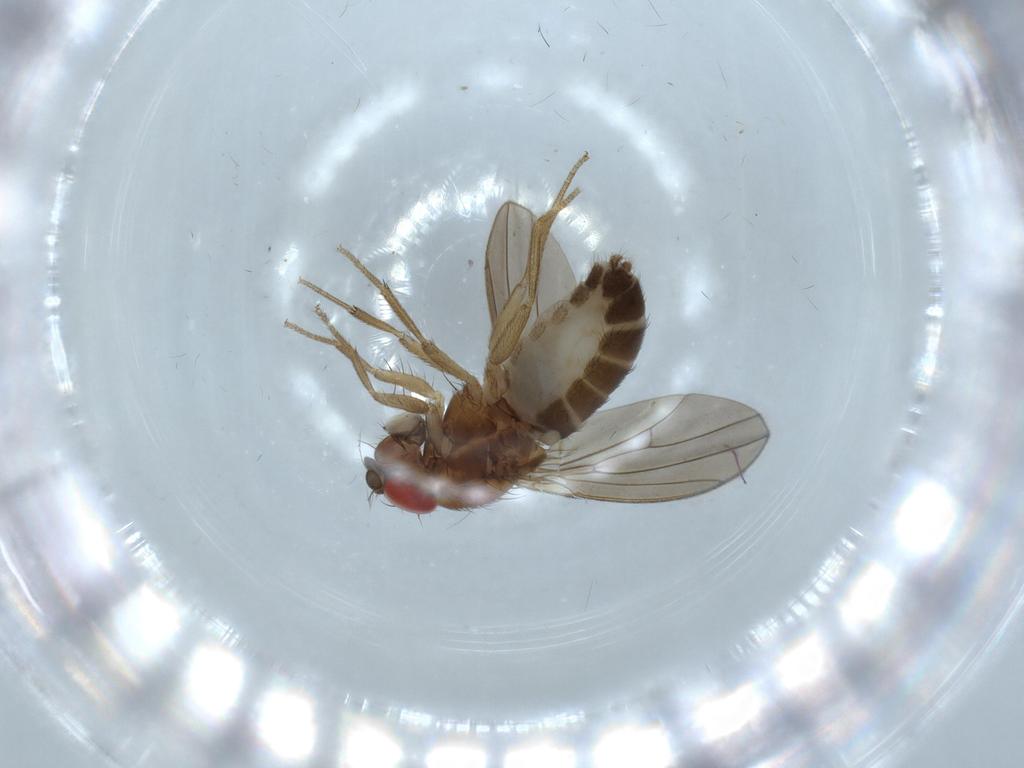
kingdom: Animalia
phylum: Arthropoda
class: Insecta
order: Diptera
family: Drosophilidae
